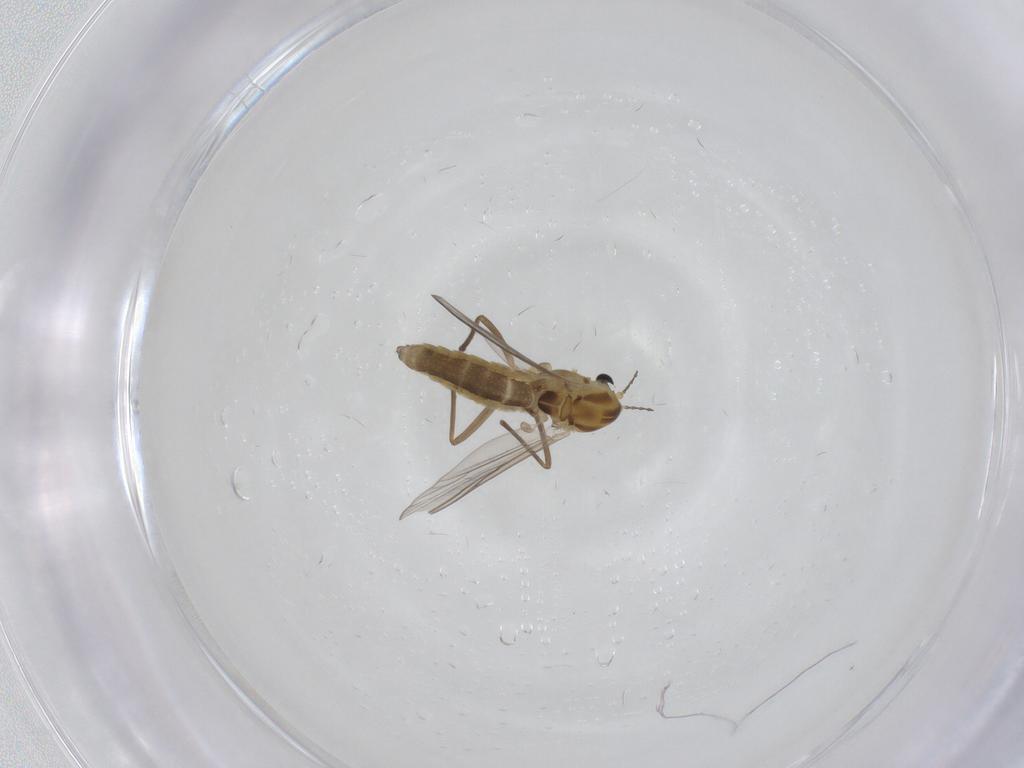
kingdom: Animalia
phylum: Arthropoda
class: Insecta
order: Diptera
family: Chironomidae
